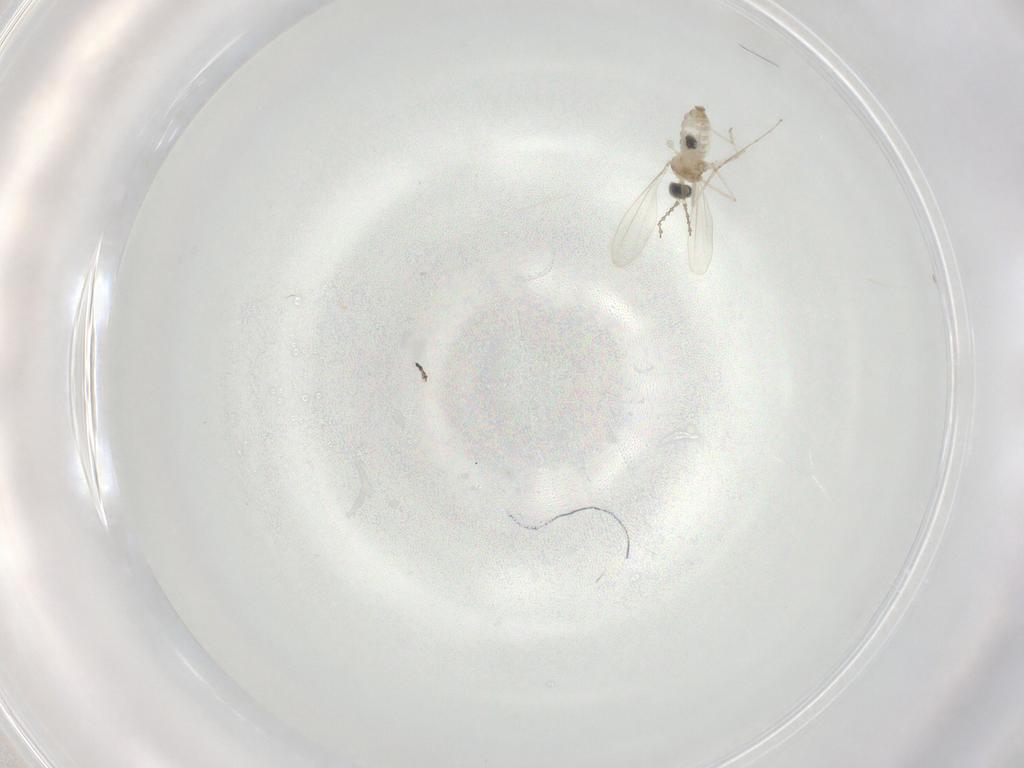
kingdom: Animalia
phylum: Arthropoda
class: Insecta
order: Diptera
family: Cecidomyiidae
